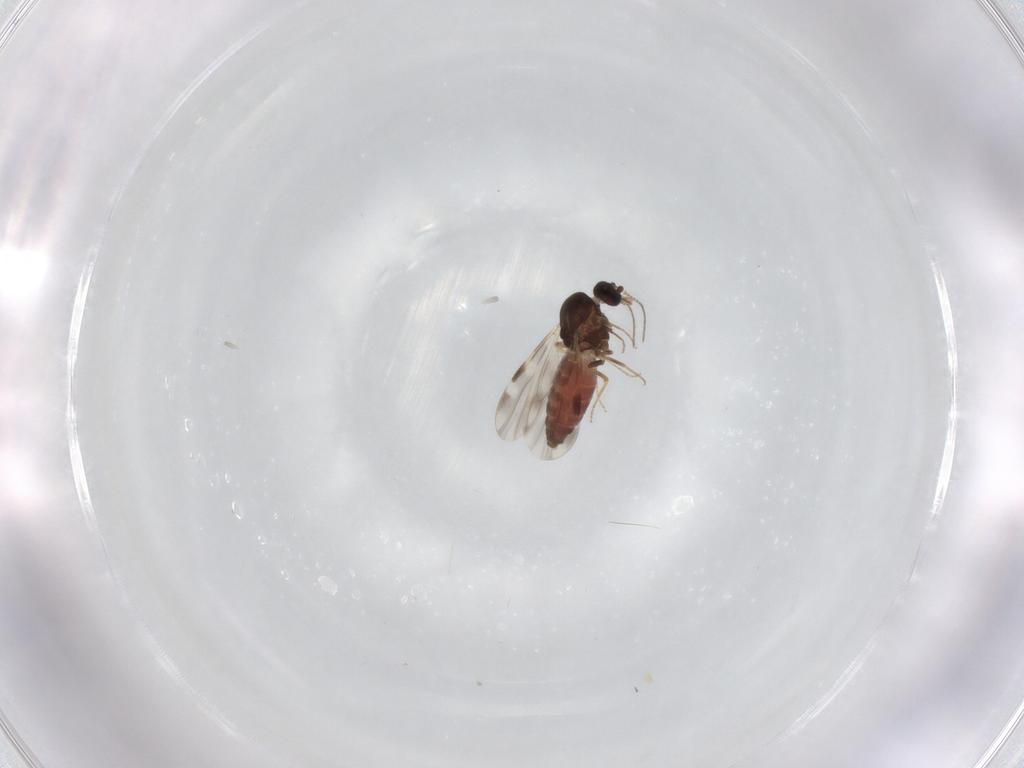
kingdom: Animalia
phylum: Arthropoda
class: Insecta
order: Diptera
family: Ceratopogonidae
